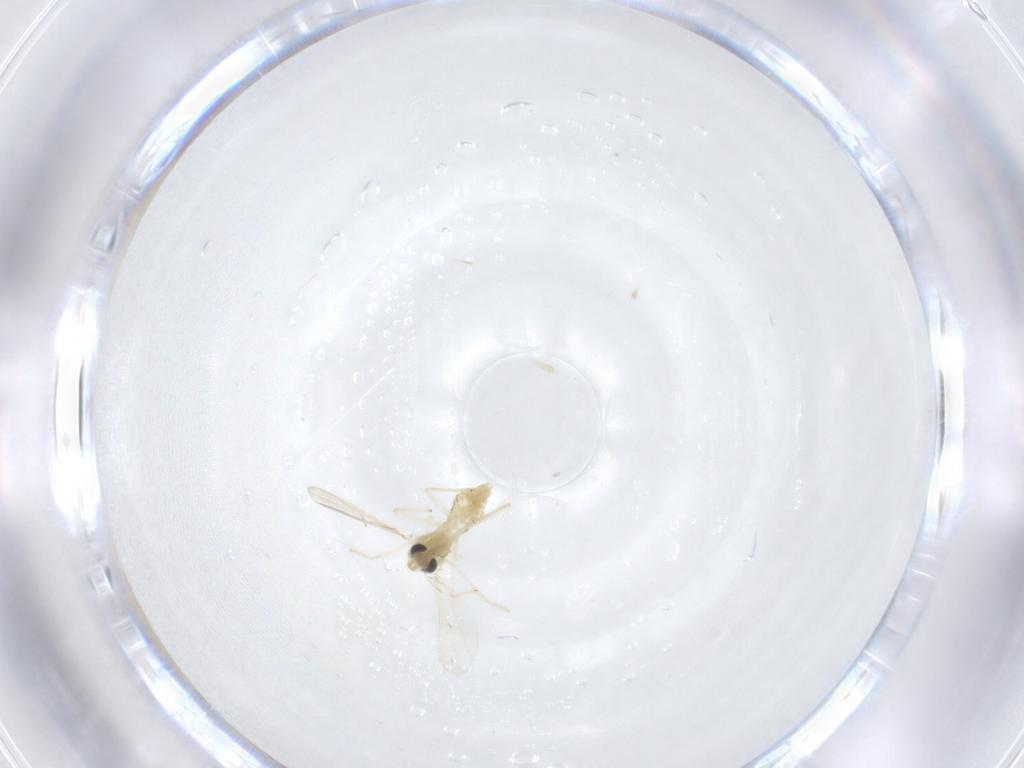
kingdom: Animalia
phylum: Arthropoda
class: Insecta
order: Diptera
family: Chironomidae
